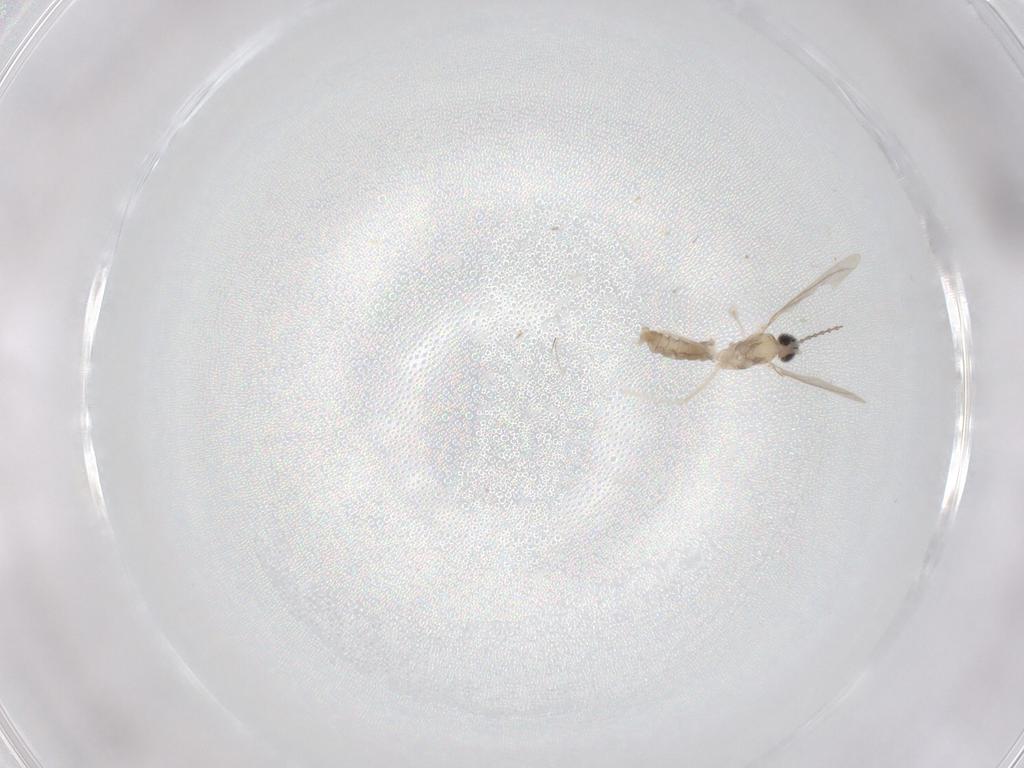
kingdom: Animalia
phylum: Arthropoda
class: Insecta
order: Diptera
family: Cecidomyiidae
